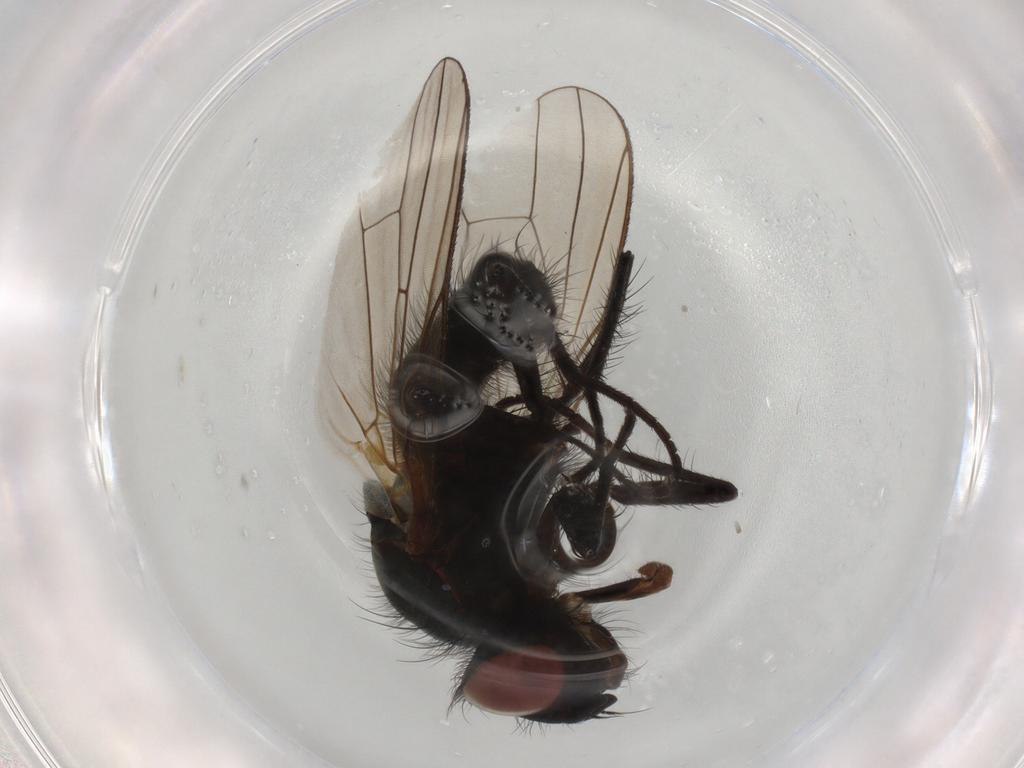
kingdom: Animalia
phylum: Arthropoda
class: Insecta
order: Diptera
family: Anthomyiidae
